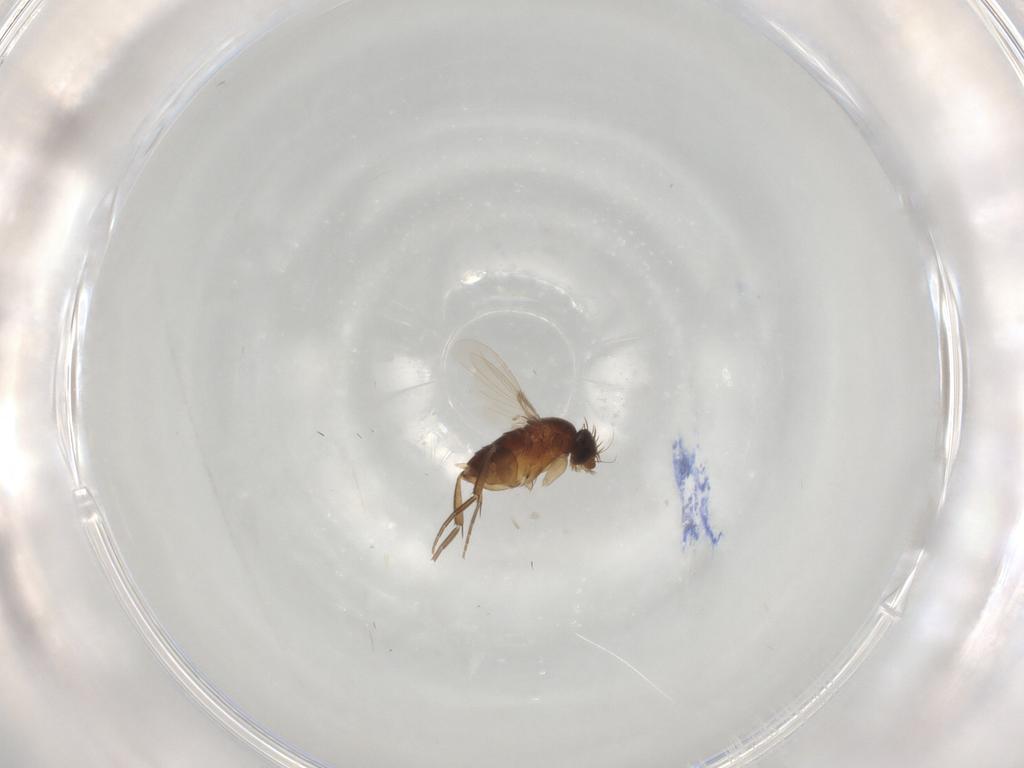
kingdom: Animalia
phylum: Arthropoda
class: Insecta
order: Diptera
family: Phoridae
